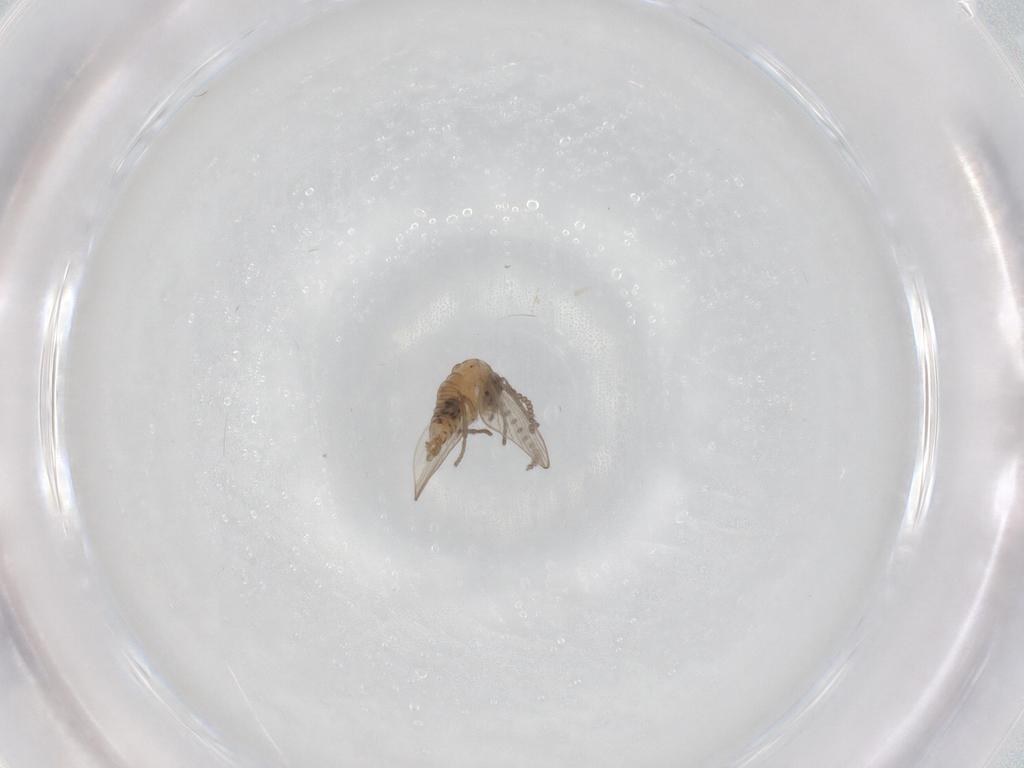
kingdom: Animalia
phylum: Arthropoda
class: Insecta
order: Diptera
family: Psychodidae
